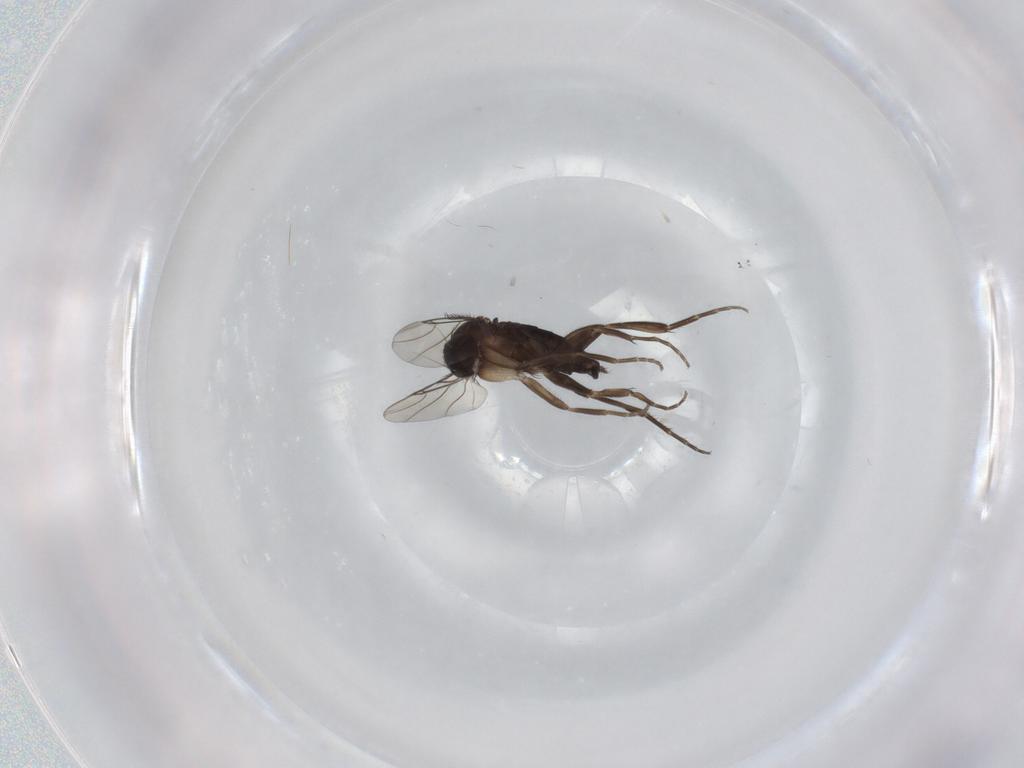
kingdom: Animalia
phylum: Arthropoda
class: Insecta
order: Diptera
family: Phoridae
